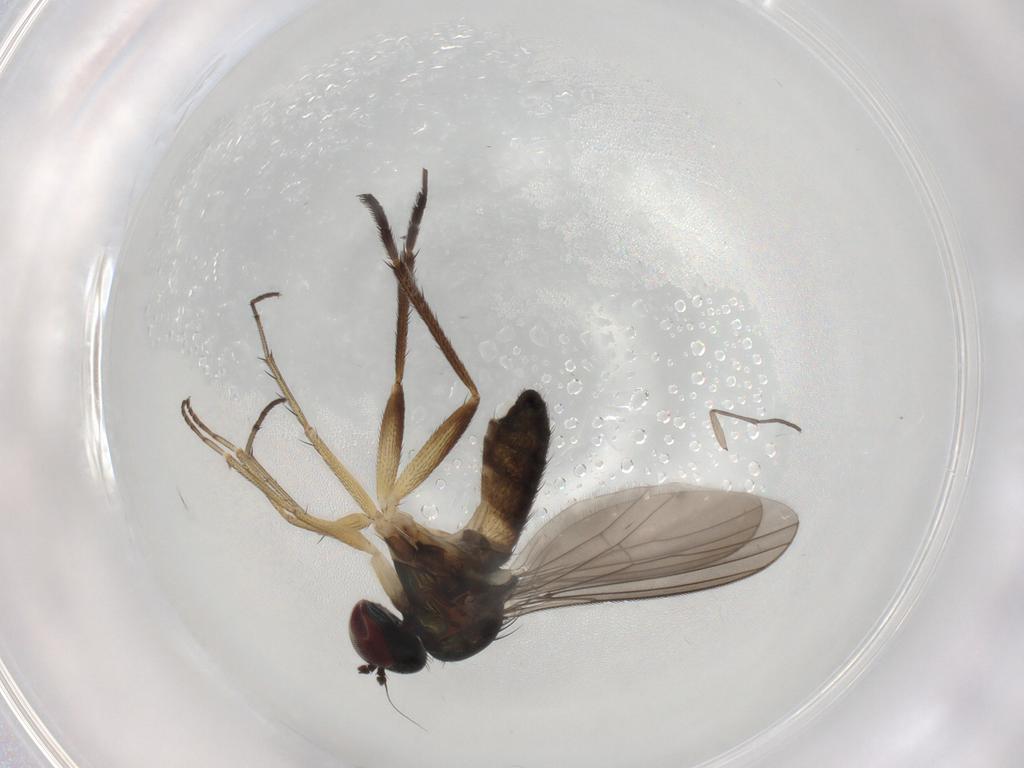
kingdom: Animalia
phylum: Arthropoda
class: Insecta
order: Diptera
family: Dolichopodidae
